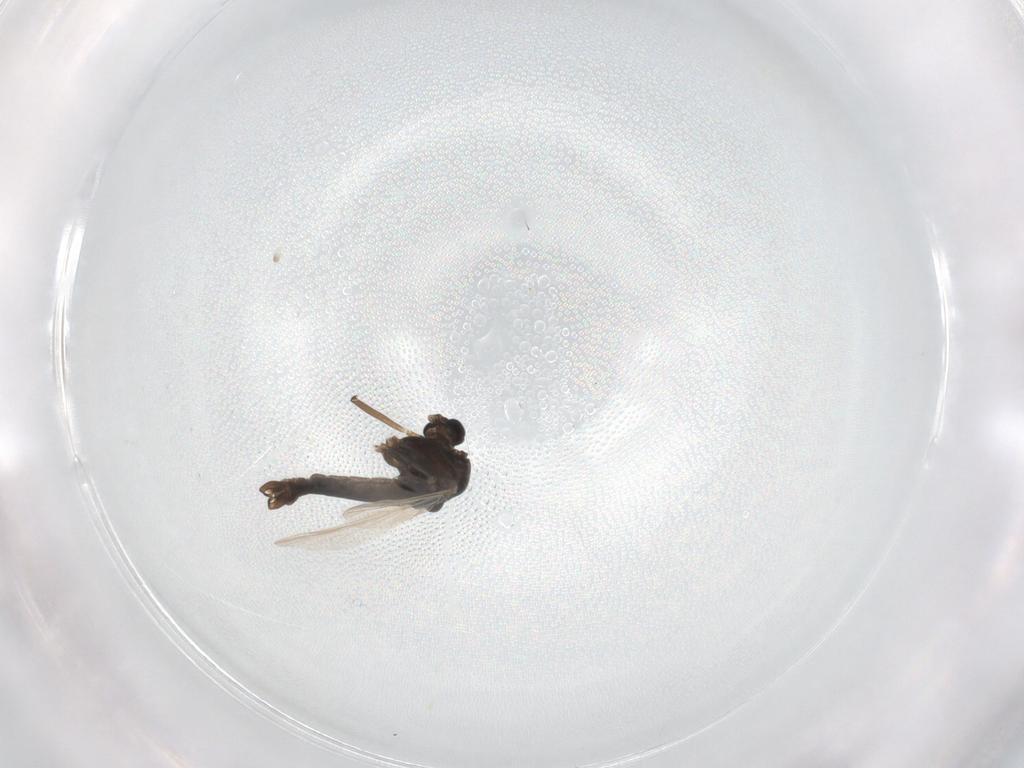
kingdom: Animalia
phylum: Arthropoda
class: Insecta
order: Diptera
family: Chironomidae
